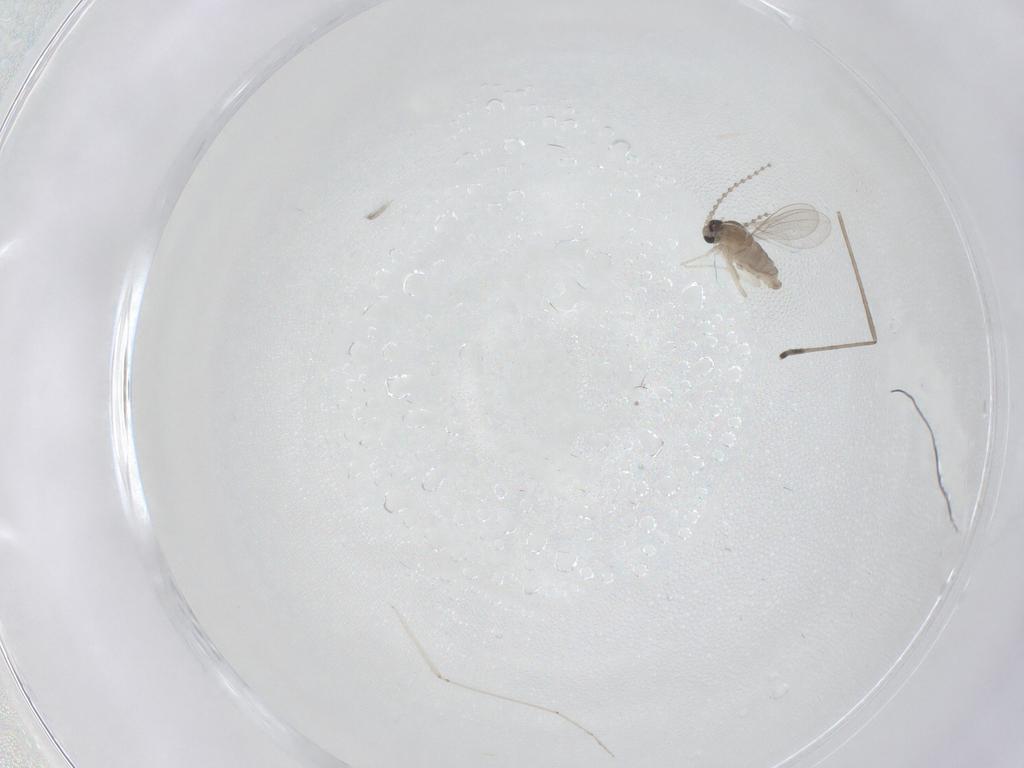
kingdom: Animalia
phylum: Arthropoda
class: Insecta
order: Diptera
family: Cecidomyiidae
